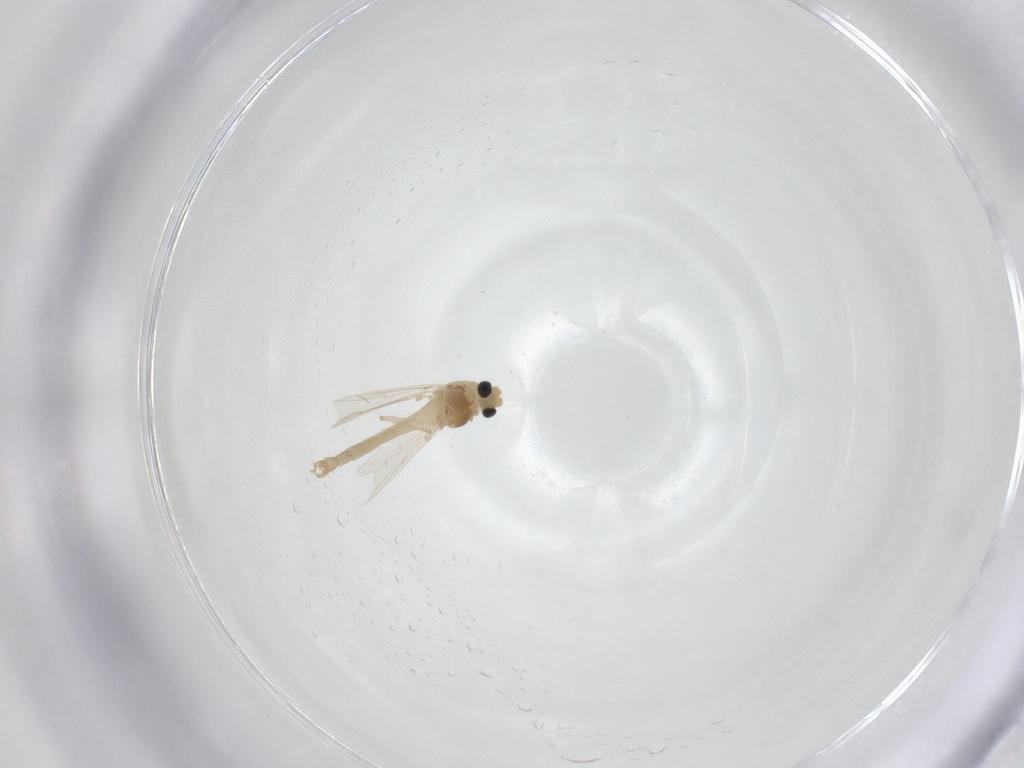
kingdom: Animalia
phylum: Arthropoda
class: Insecta
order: Diptera
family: Chironomidae
